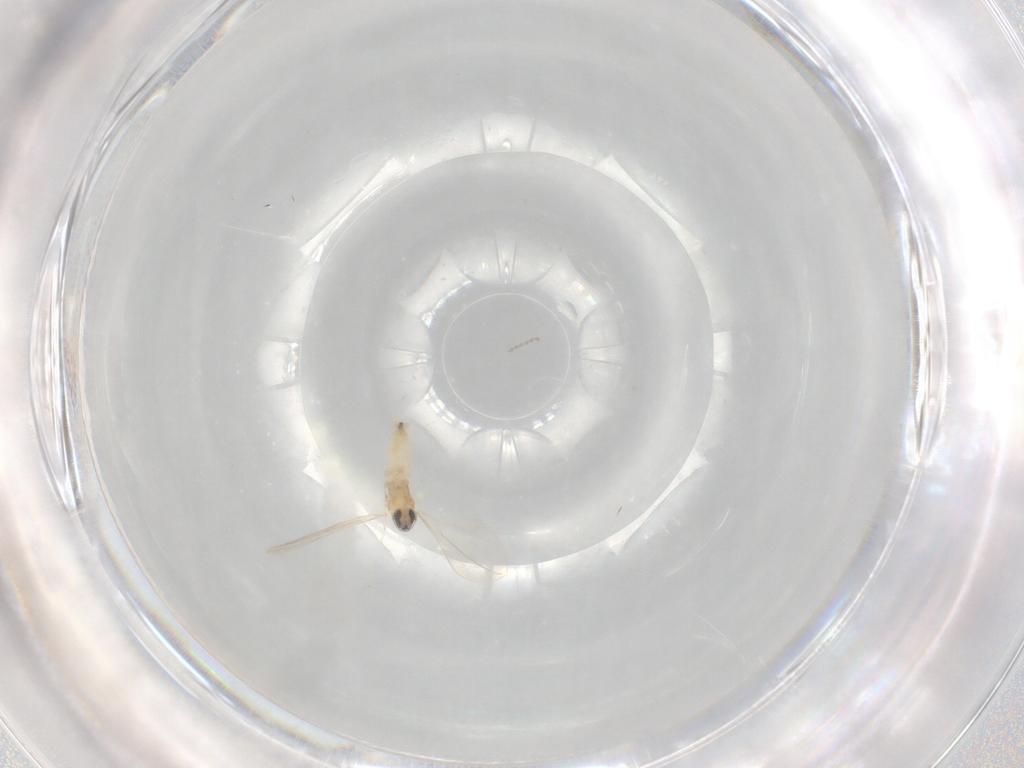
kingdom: Animalia
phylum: Arthropoda
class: Insecta
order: Diptera
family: Cecidomyiidae
